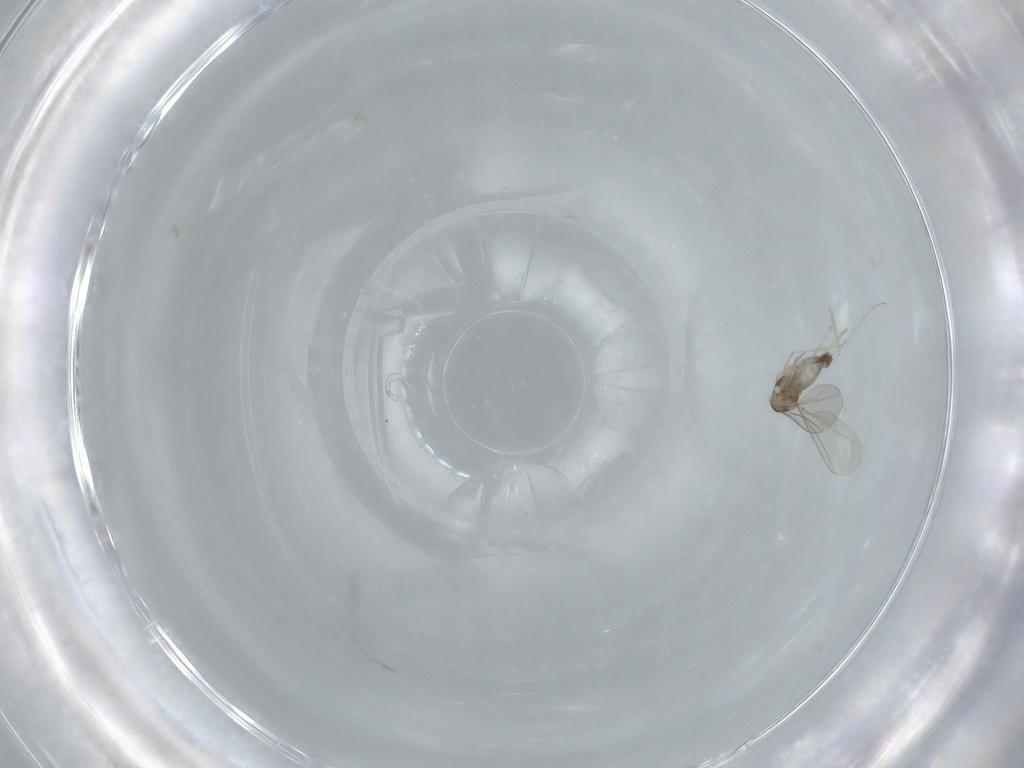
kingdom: Animalia
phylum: Arthropoda
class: Insecta
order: Diptera
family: Cecidomyiidae
